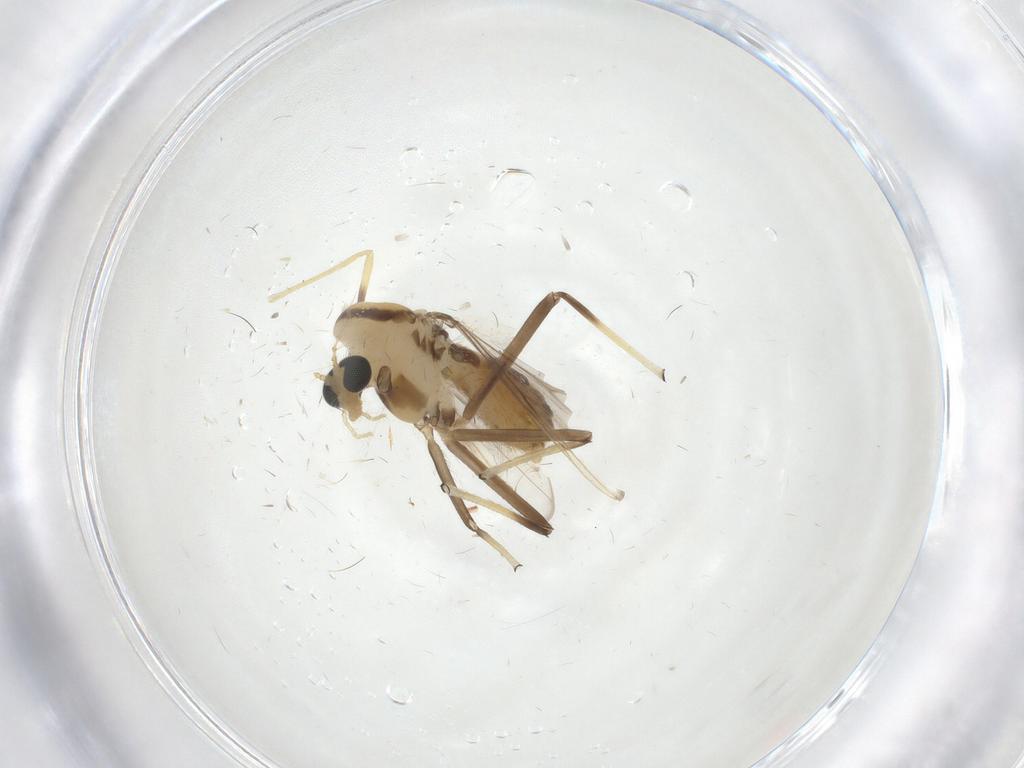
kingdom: Animalia
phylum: Arthropoda
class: Insecta
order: Diptera
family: Chironomidae
